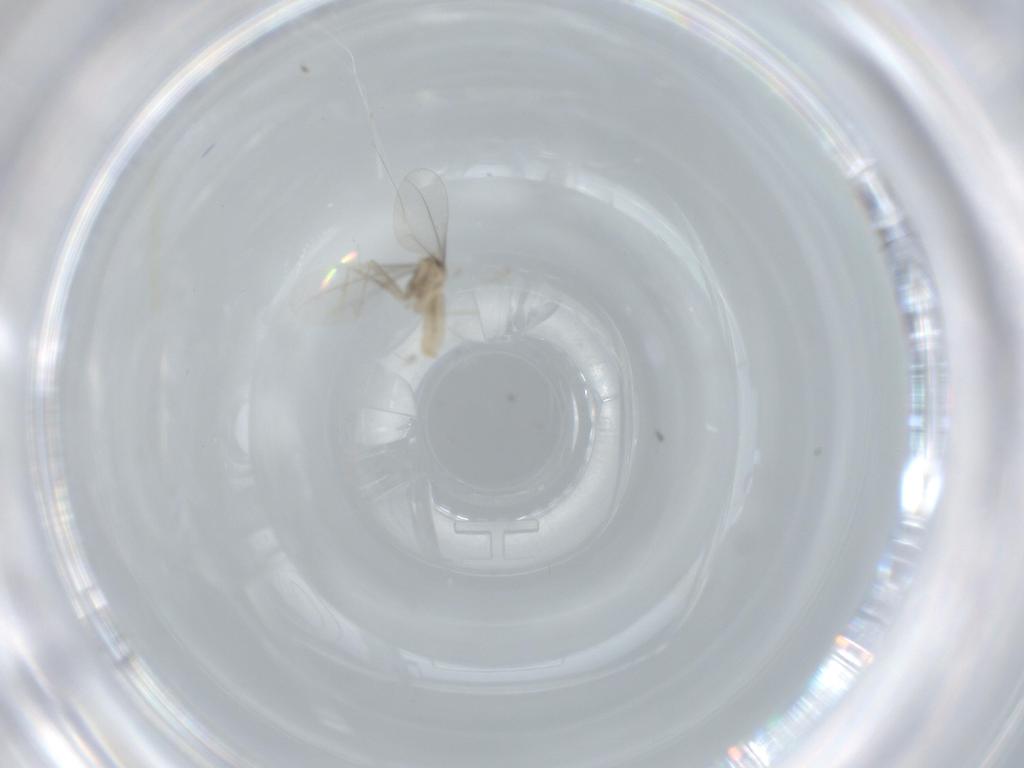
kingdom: Animalia
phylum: Arthropoda
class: Insecta
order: Diptera
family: Cecidomyiidae
